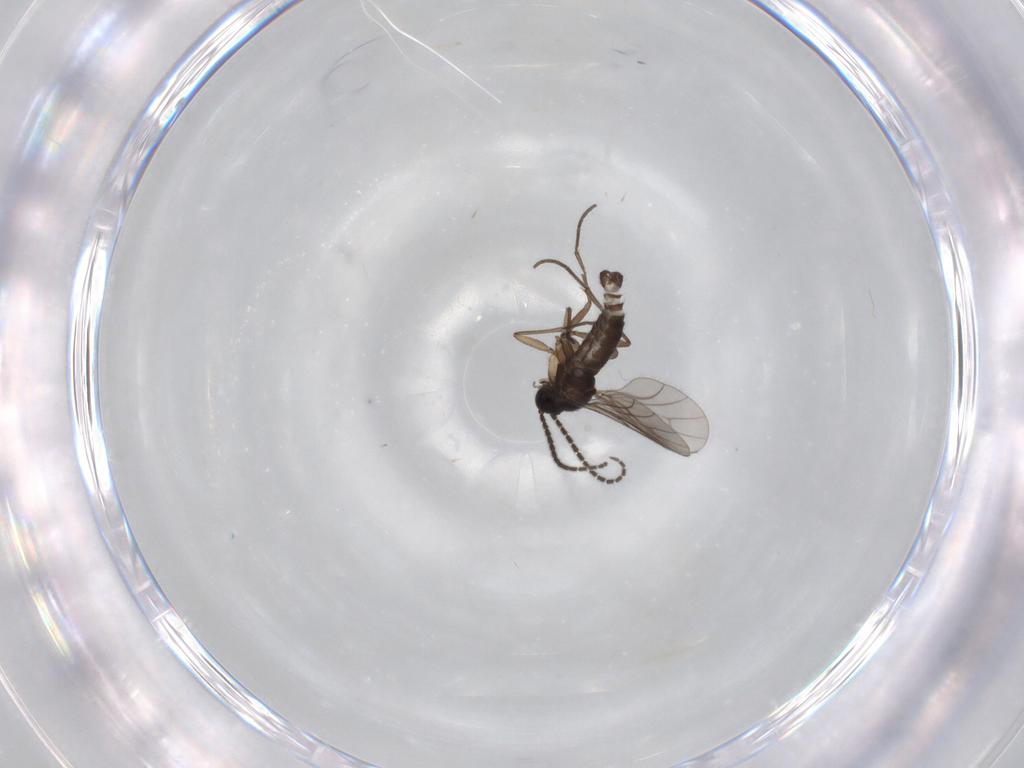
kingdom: Animalia
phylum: Arthropoda
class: Insecta
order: Diptera
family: Sciaridae
